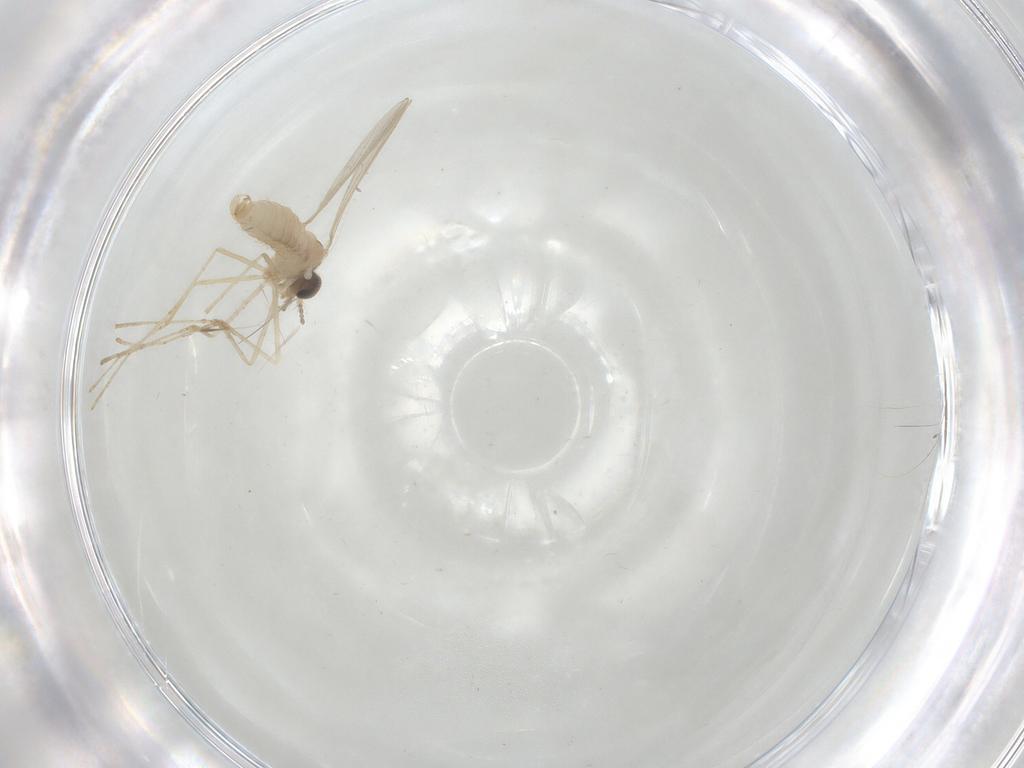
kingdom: Animalia
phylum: Arthropoda
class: Insecta
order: Diptera
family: Cecidomyiidae
